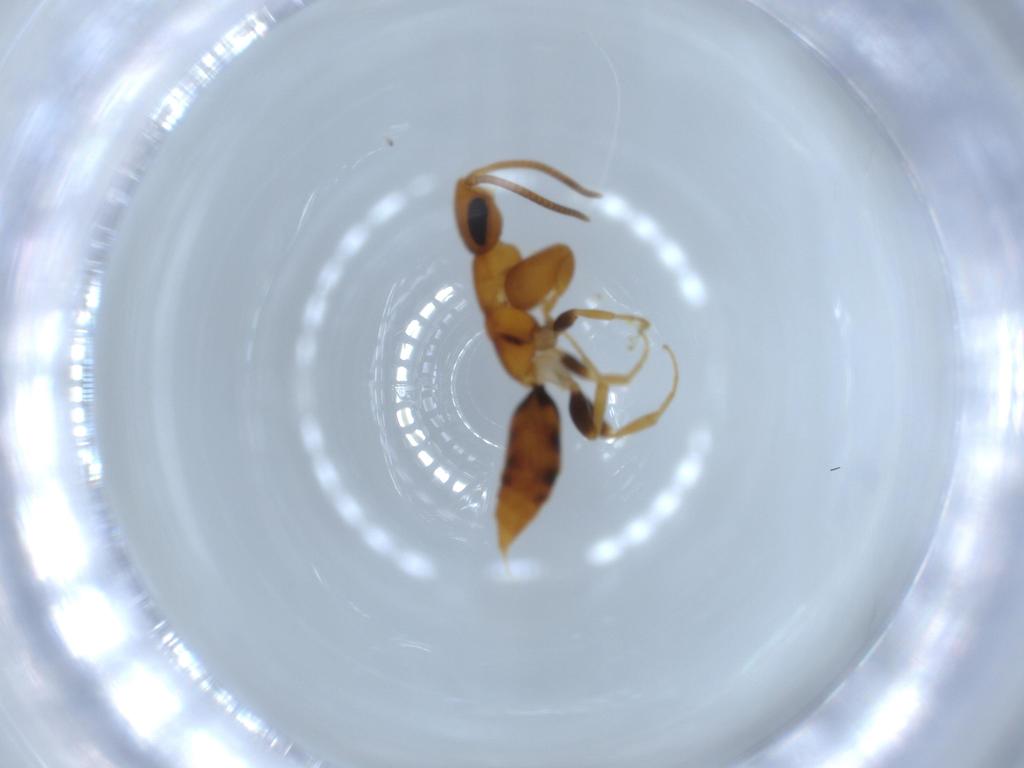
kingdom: Animalia
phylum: Arthropoda
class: Insecta
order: Hymenoptera
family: Sclerogibbidae
